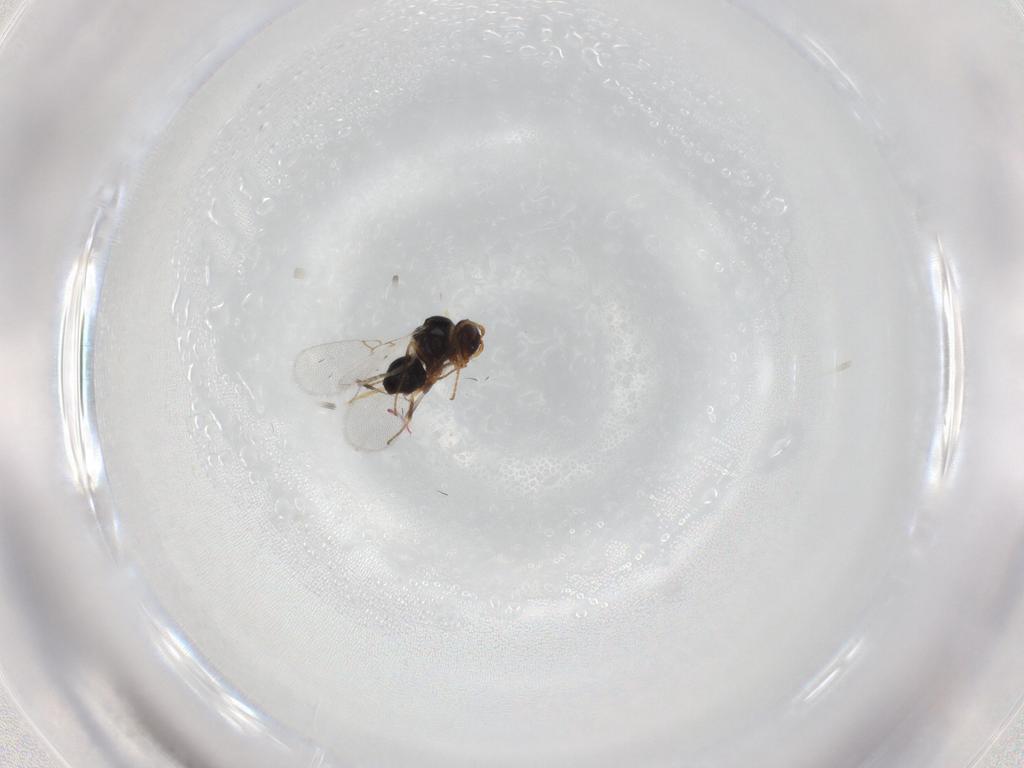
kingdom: Animalia
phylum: Arthropoda
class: Insecta
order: Hymenoptera
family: Figitidae
